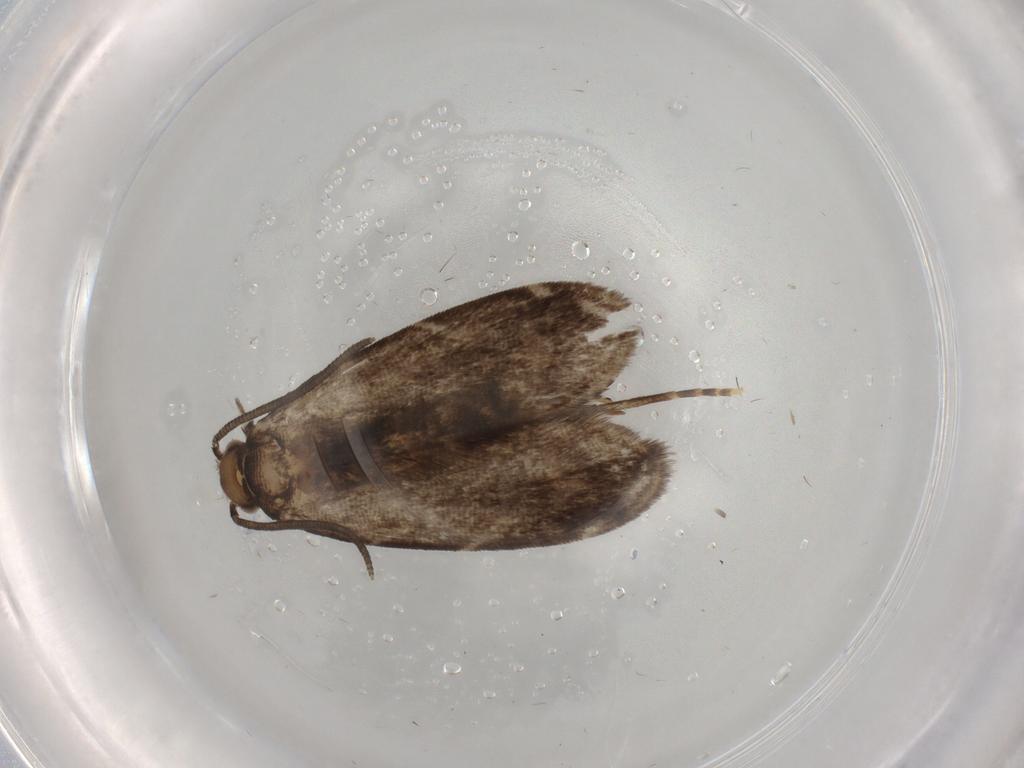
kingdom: Animalia
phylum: Arthropoda
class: Insecta
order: Lepidoptera
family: Dryadaulidae
